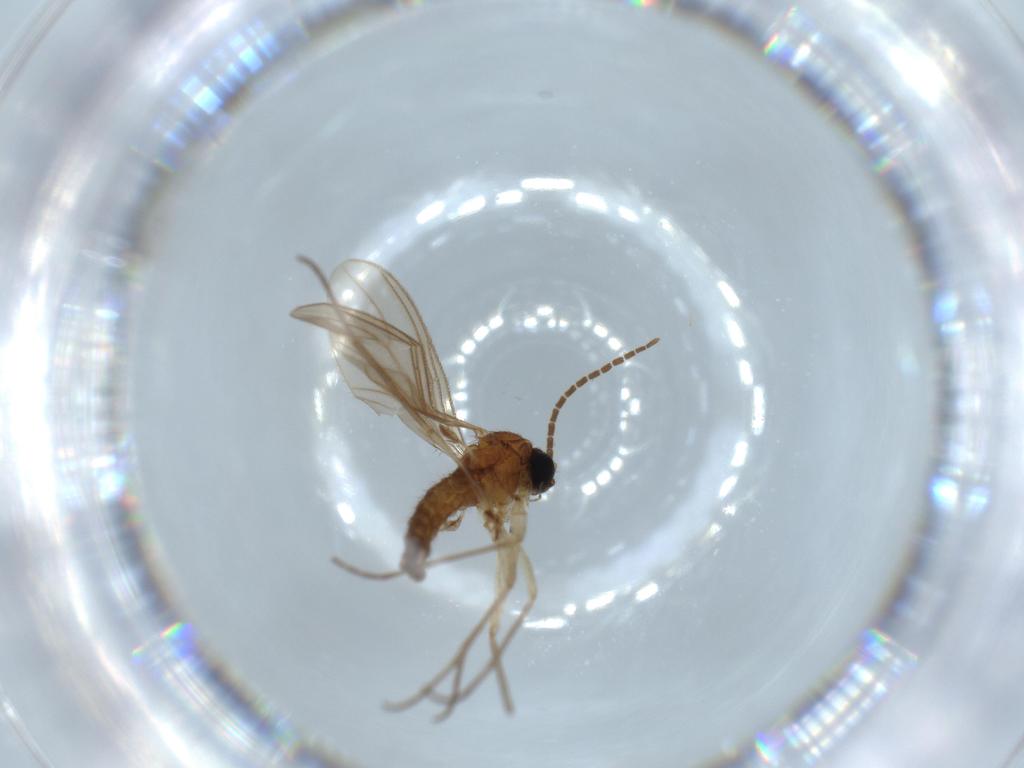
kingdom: Animalia
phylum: Arthropoda
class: Insecta
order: Diptera
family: Sciaridae
